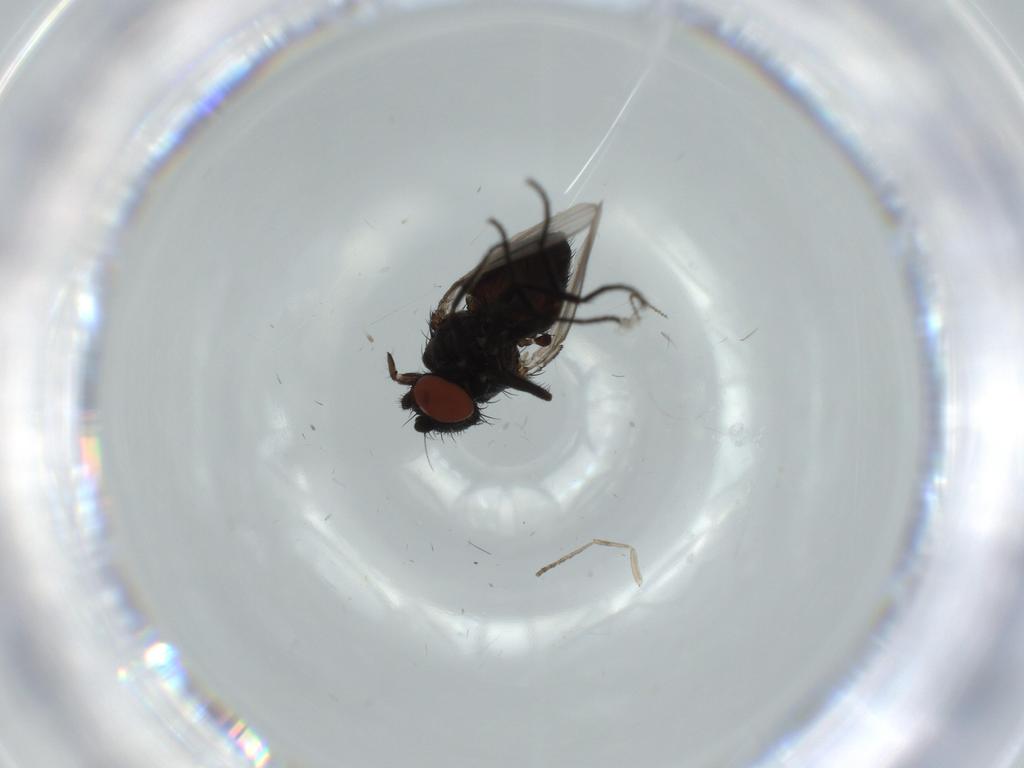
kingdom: Animalia
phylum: Arthropoda
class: Insecta
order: Diptera
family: Milichiidae
